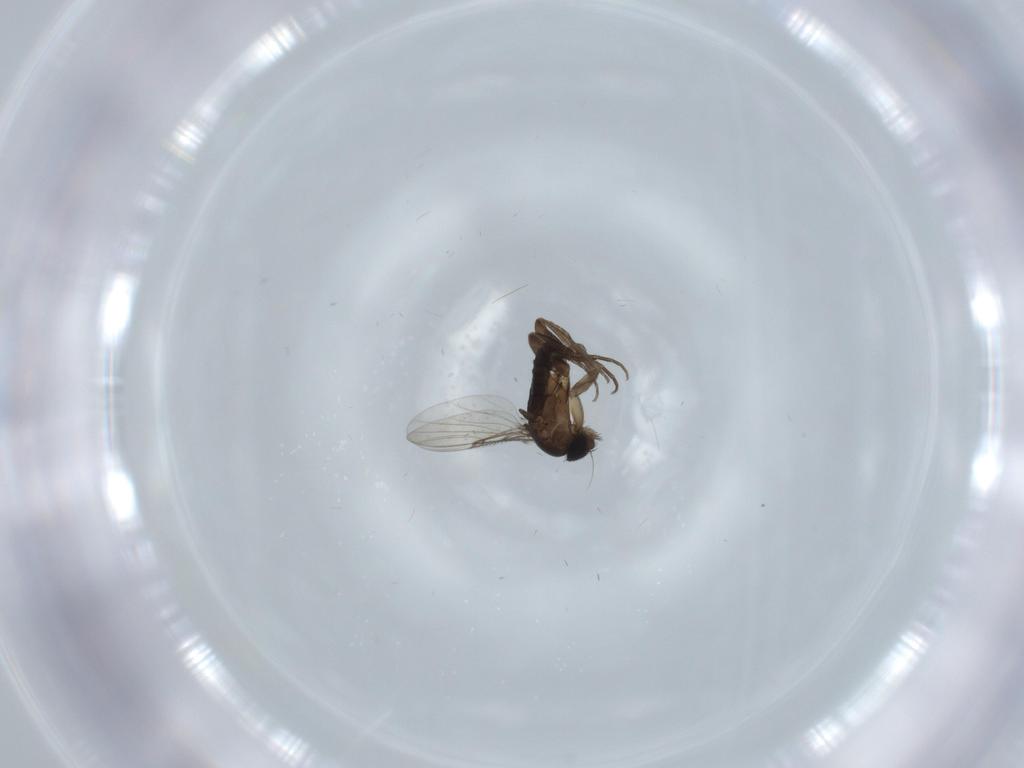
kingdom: Animalia
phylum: Arthropoda
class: Insecta
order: Diptera
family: Phoridae
